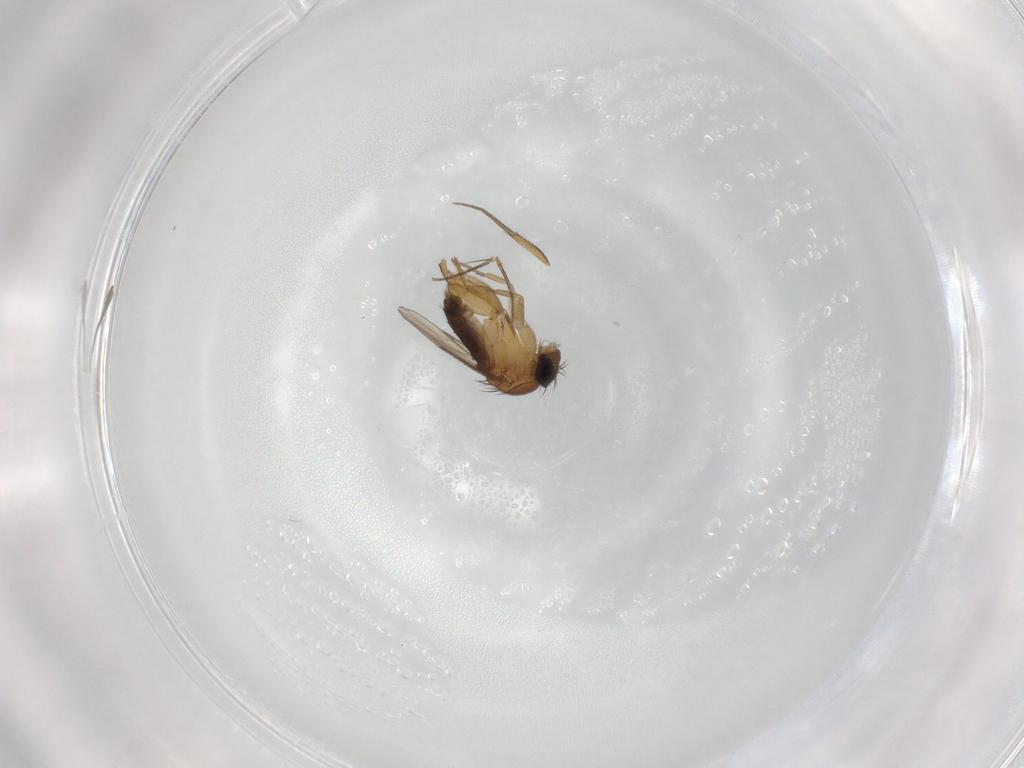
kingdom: Animalia
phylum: Arthropoda
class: Insecta
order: Diptera
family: Phoridae
